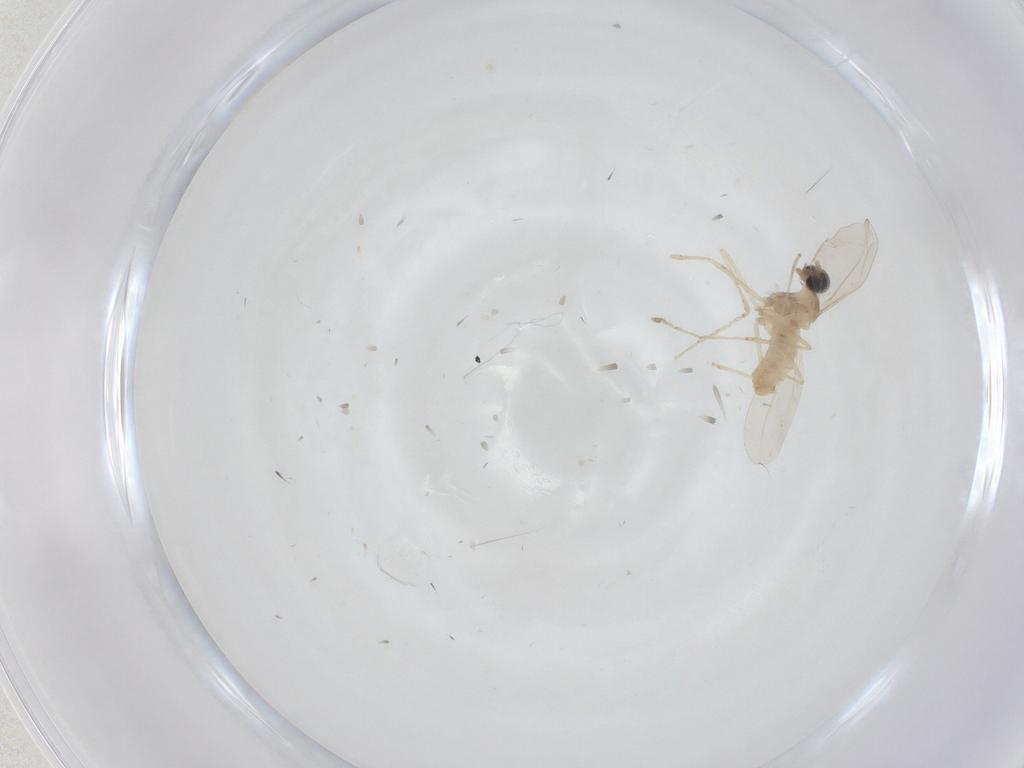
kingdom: Animalia
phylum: Arthropoda
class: Insecta
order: Diptera
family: Cecidomyiidae
